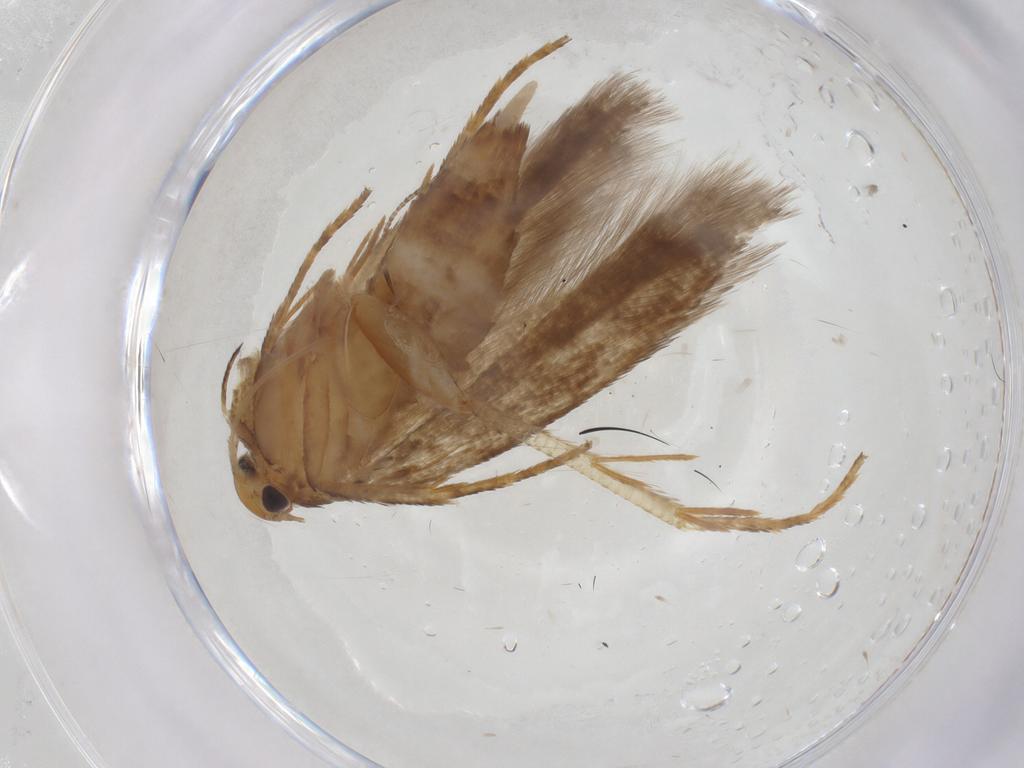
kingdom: Animalia
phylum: Arthropoda
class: Insecta
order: Lepidoptera
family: Gelechiidae
